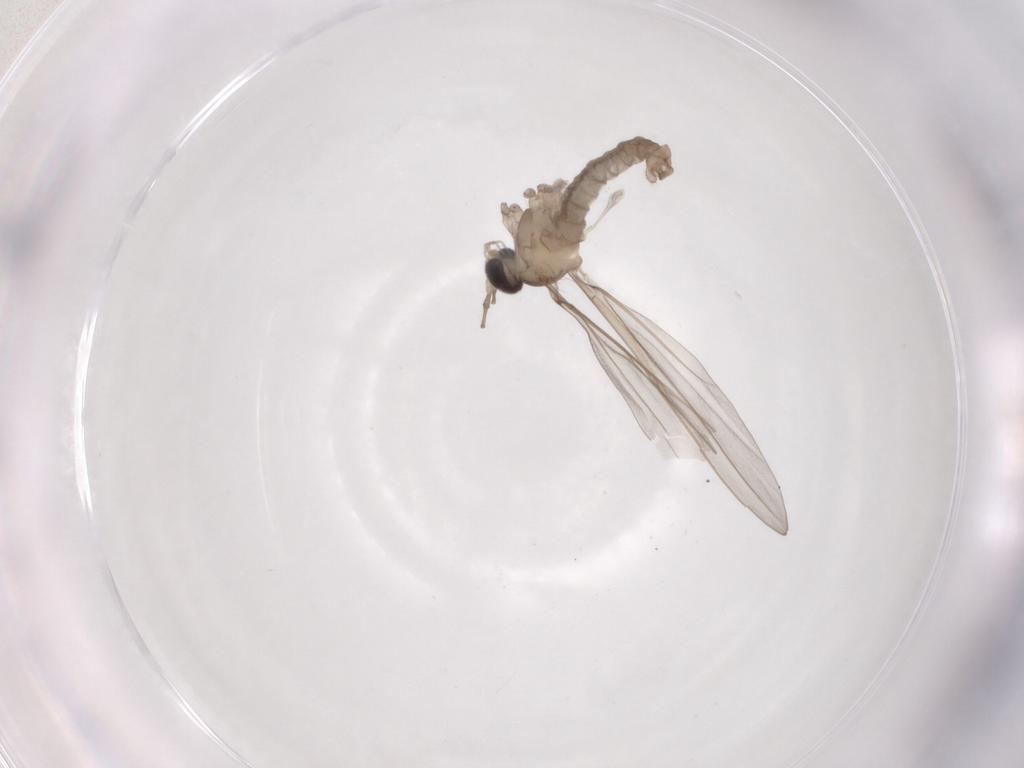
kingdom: Animalia
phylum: Arthropoda
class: Insecta
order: Diptera
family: Cecidomyiidae
